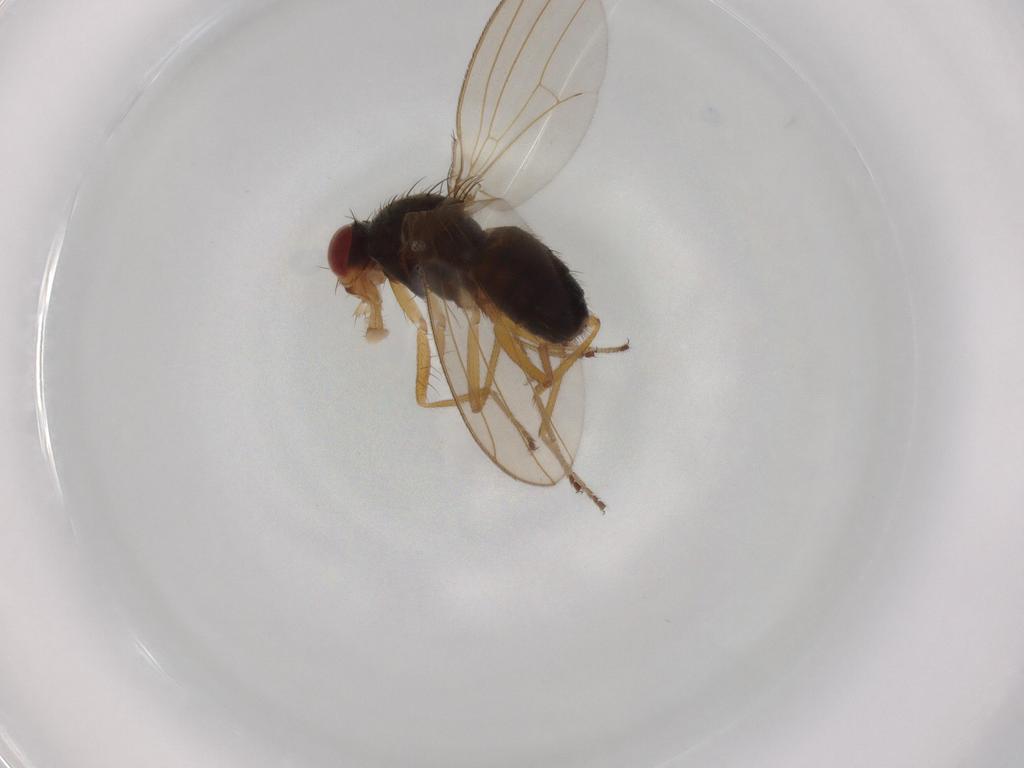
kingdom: Animalia
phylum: Arthropoda
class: Insecta
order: Diptera
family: Drosophilidae
